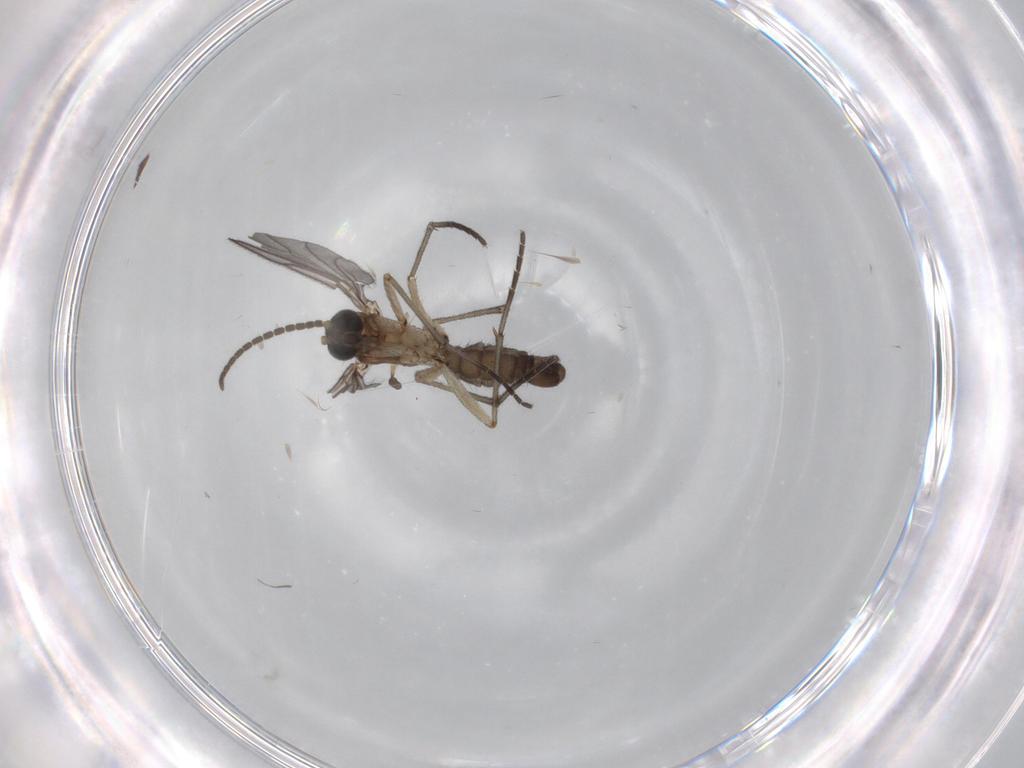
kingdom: Animalia
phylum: Arthropoda
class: Insecta
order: Diptera
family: Sciaridae
